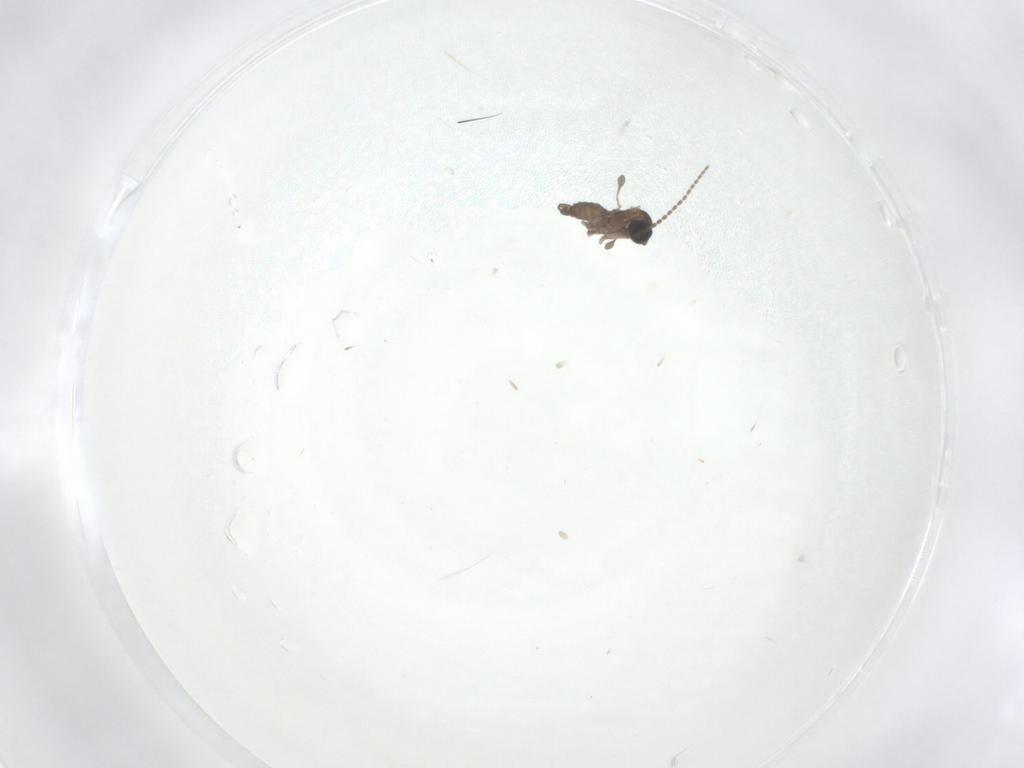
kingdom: Animalia
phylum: Arthropoda
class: Insecta
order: Diptera
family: Sciaridae
